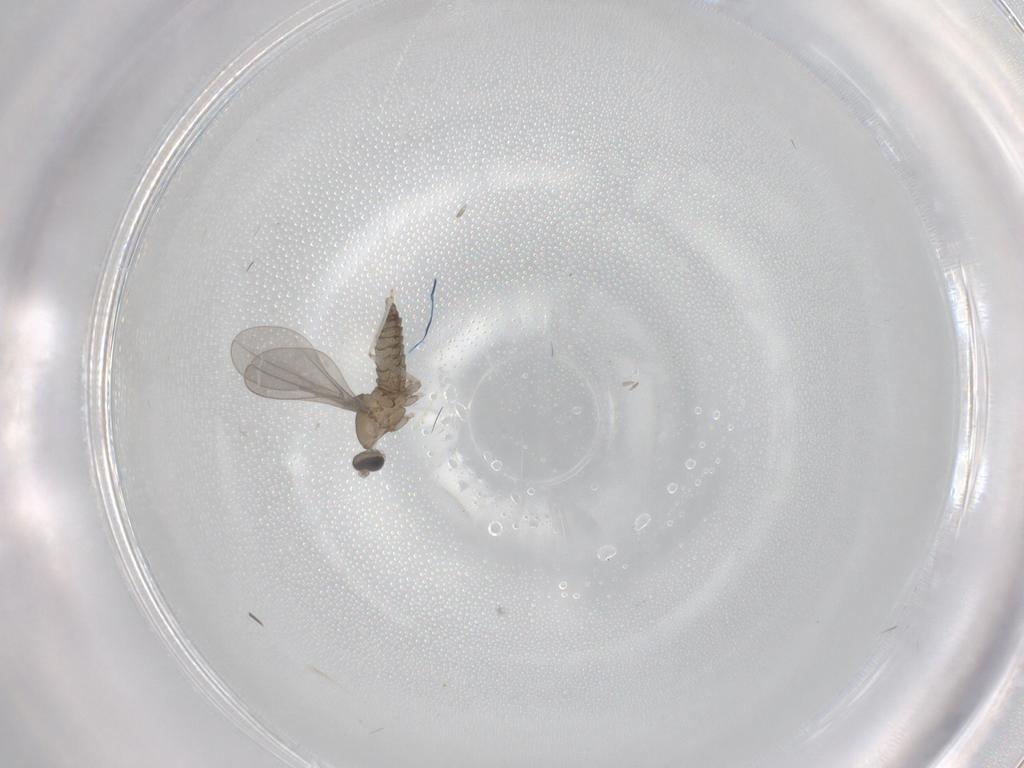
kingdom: Animalia
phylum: Arthropoda
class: Insecta
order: Diptera
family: Cecidomyiidae
